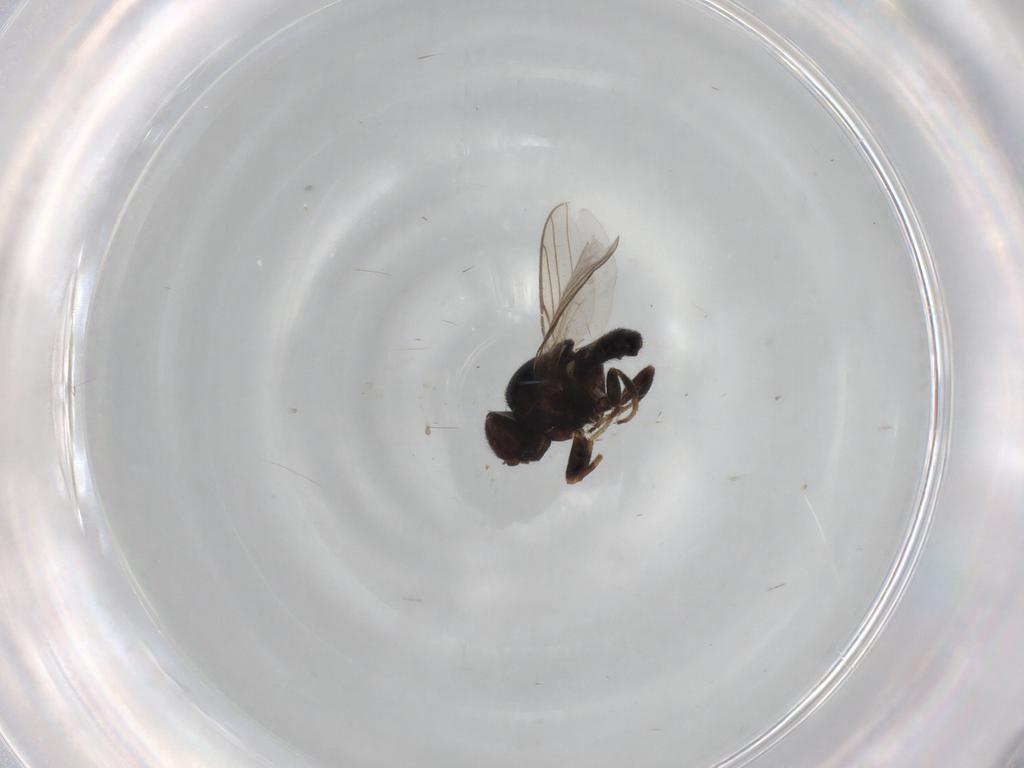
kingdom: Animalia
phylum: Arthropoda
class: Insecta
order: Diptera
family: Chloropidae
